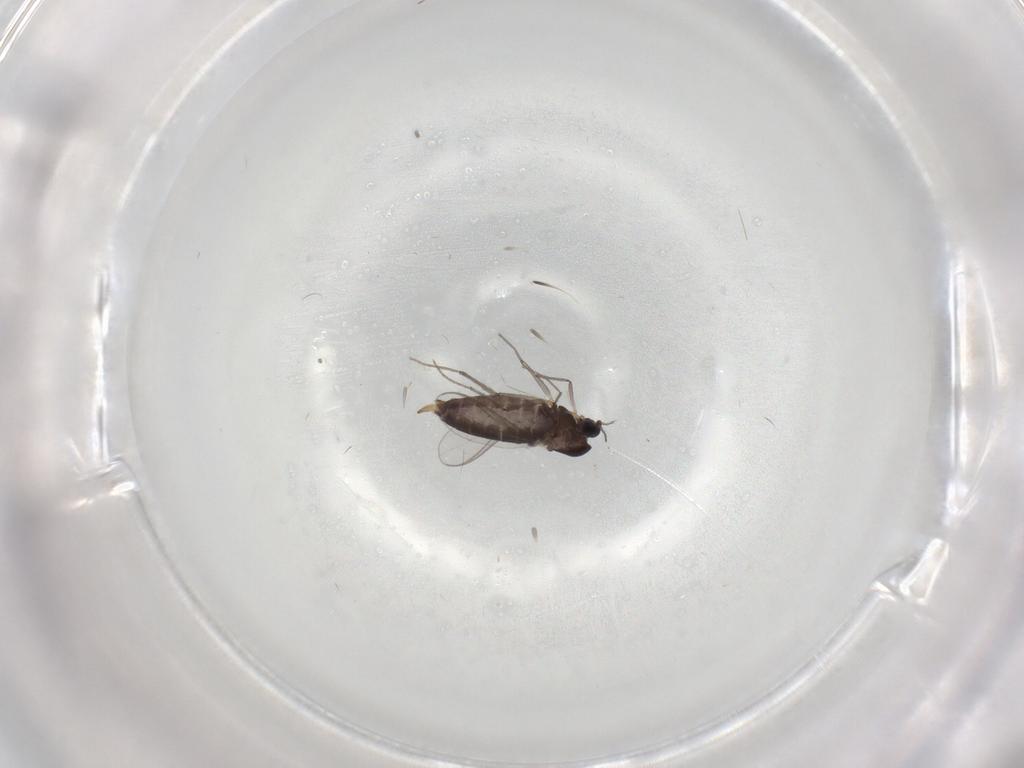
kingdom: Animalia
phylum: Arthropoda
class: Insecta
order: Diptera
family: Chironomidae
